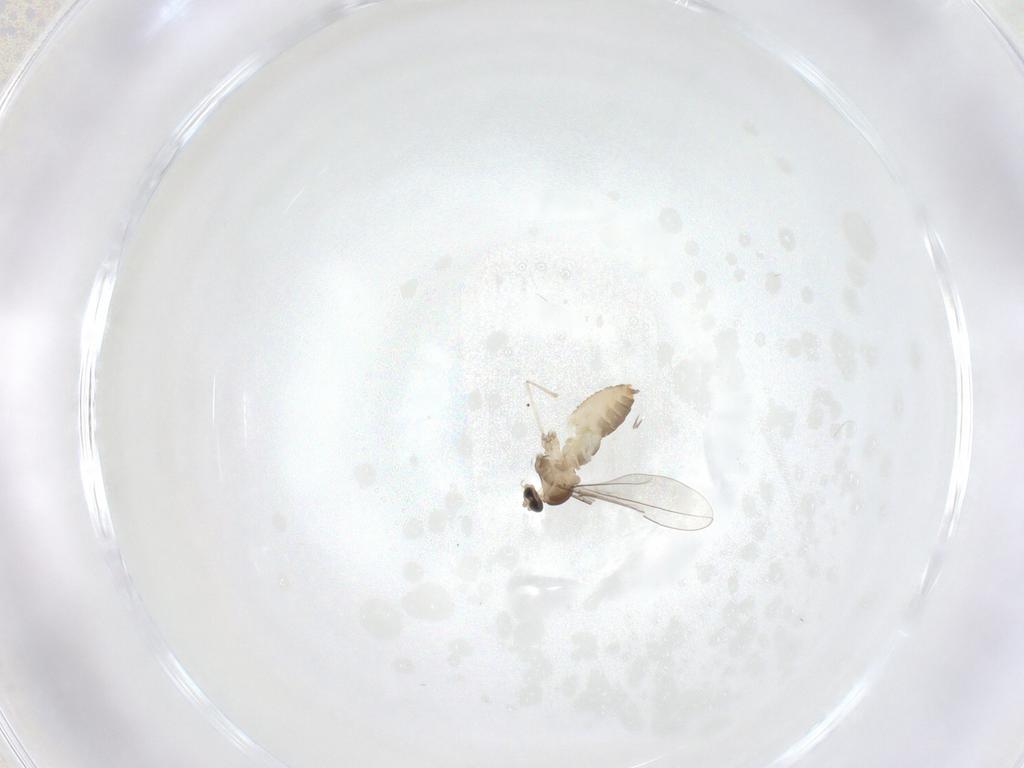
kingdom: Animalia
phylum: Arthropoda
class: Insecta
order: Diptera
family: Cecidomyiidae
